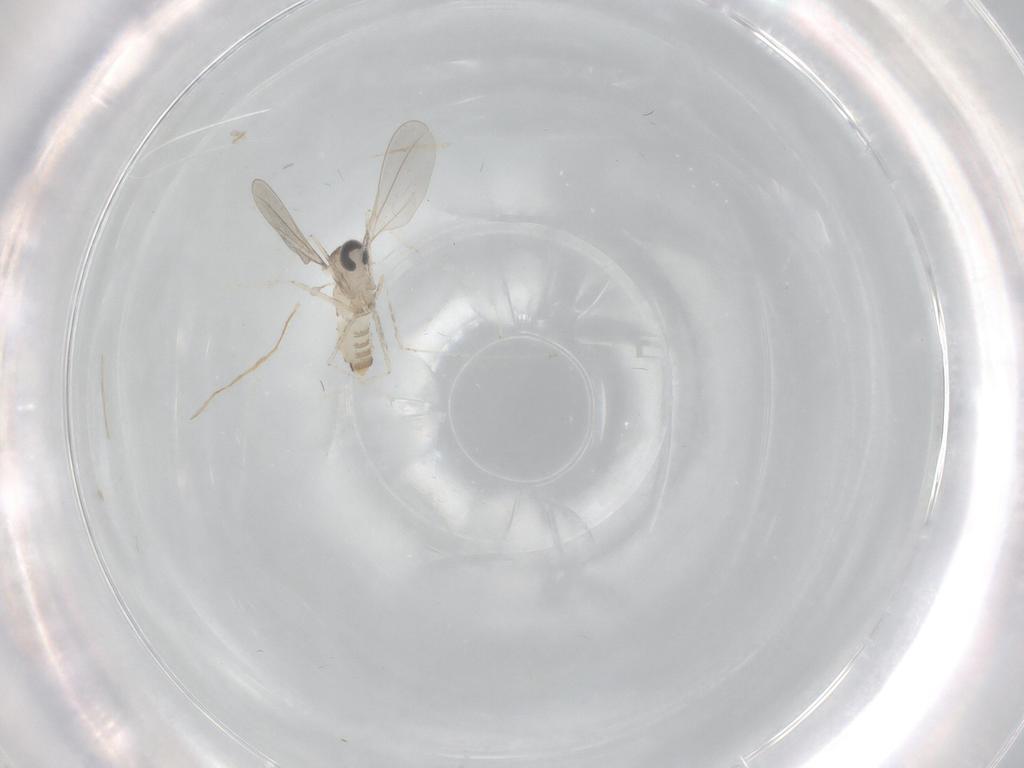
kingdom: Animalia
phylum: Arthropoda
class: Insecta
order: Diptera
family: Cecidomyiidae
